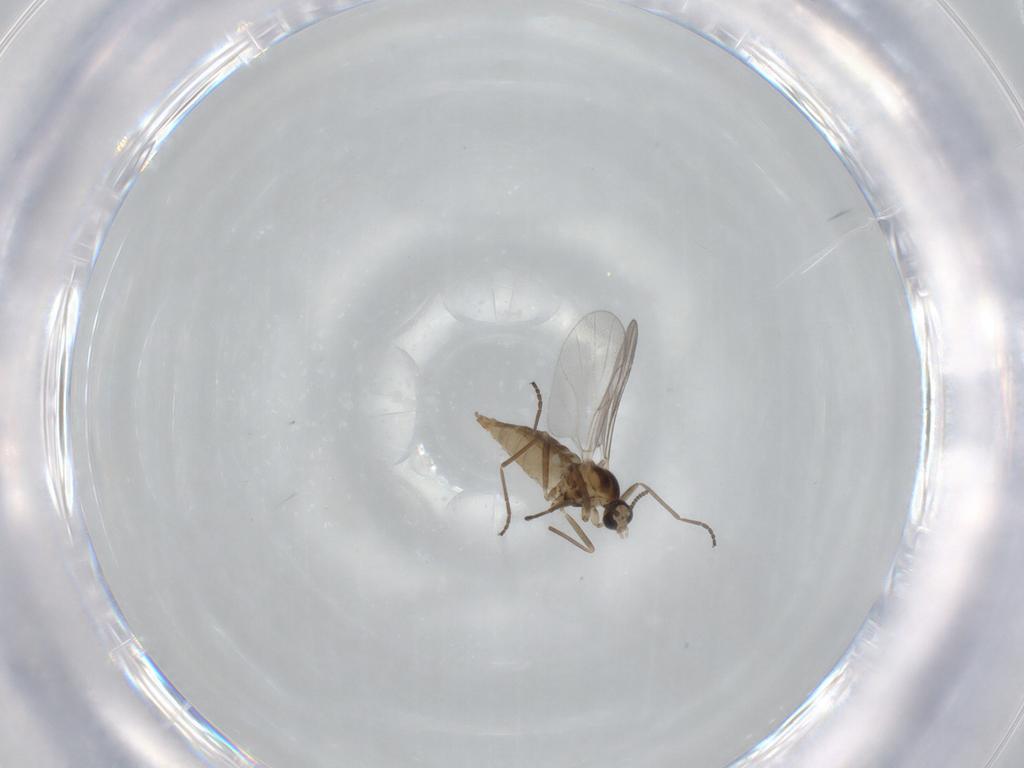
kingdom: Animalia
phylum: Arthropoda
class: Insecta
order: Diptera
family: Cecidomyiidae
